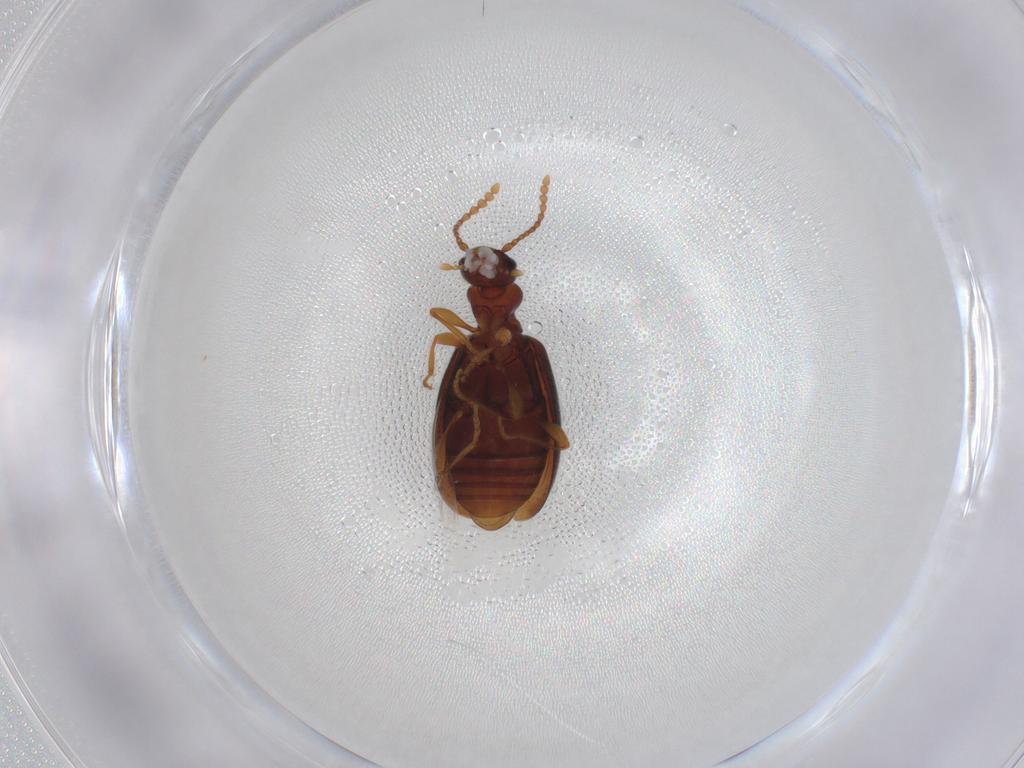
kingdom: Animalia
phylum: Arthropoda
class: Insecta
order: Coleoptera
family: Anthicidae
